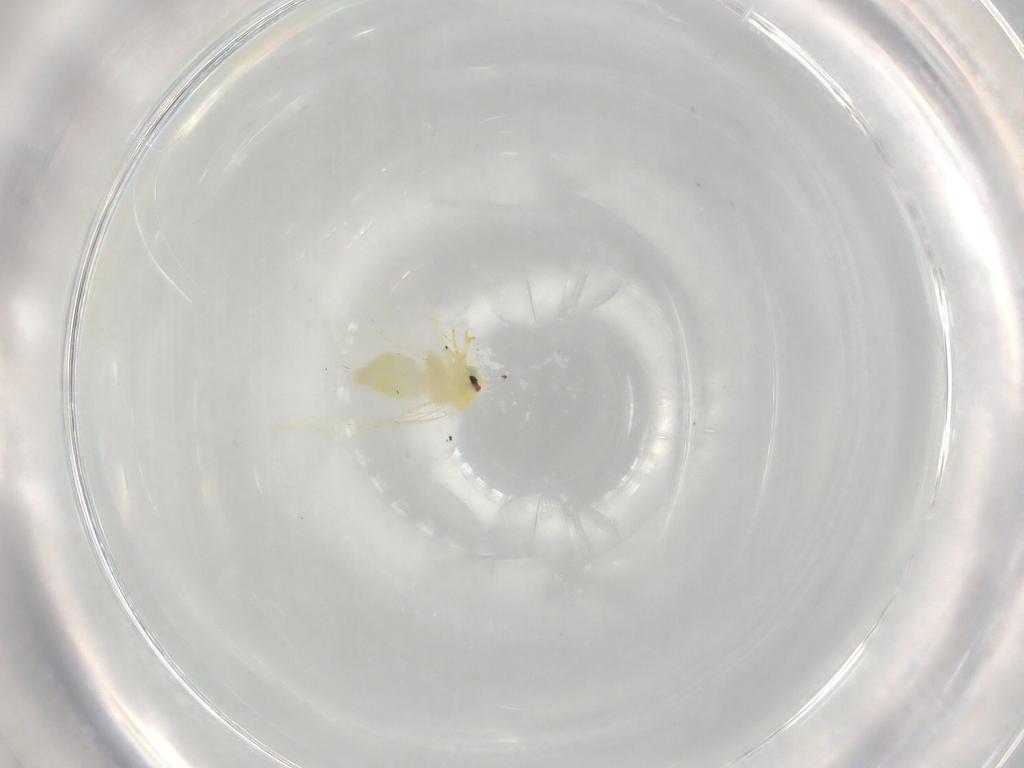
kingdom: Animalia
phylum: Arthropoda
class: Insecta
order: Hemiptera
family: Aleyrodidae
